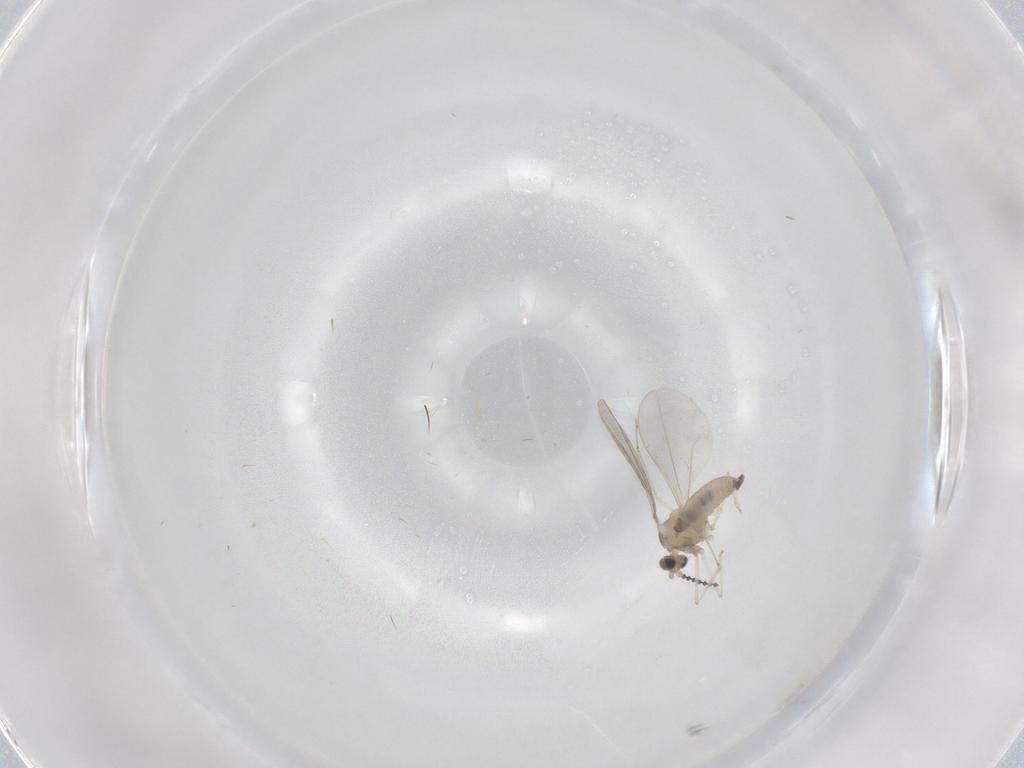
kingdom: Animalia
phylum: Arthropoda
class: Insecta
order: Diptera
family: Cecidomyiidae
